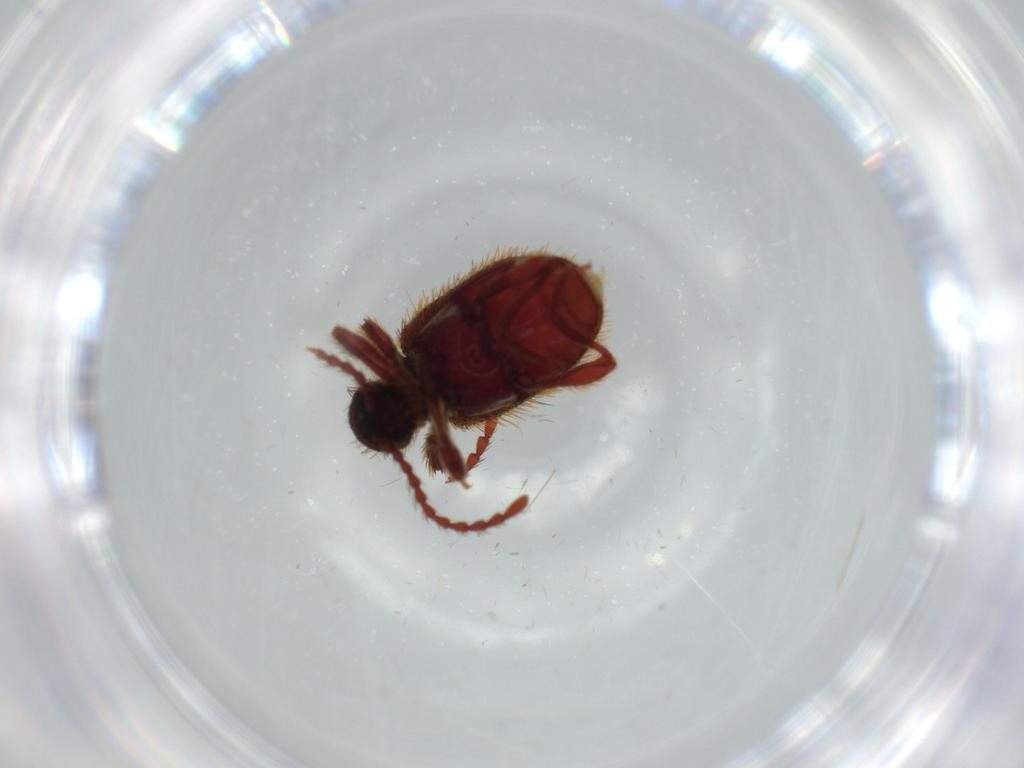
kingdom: Animalia
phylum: Arthropoda
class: Insecta
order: Coleoptera
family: Ptinidae
